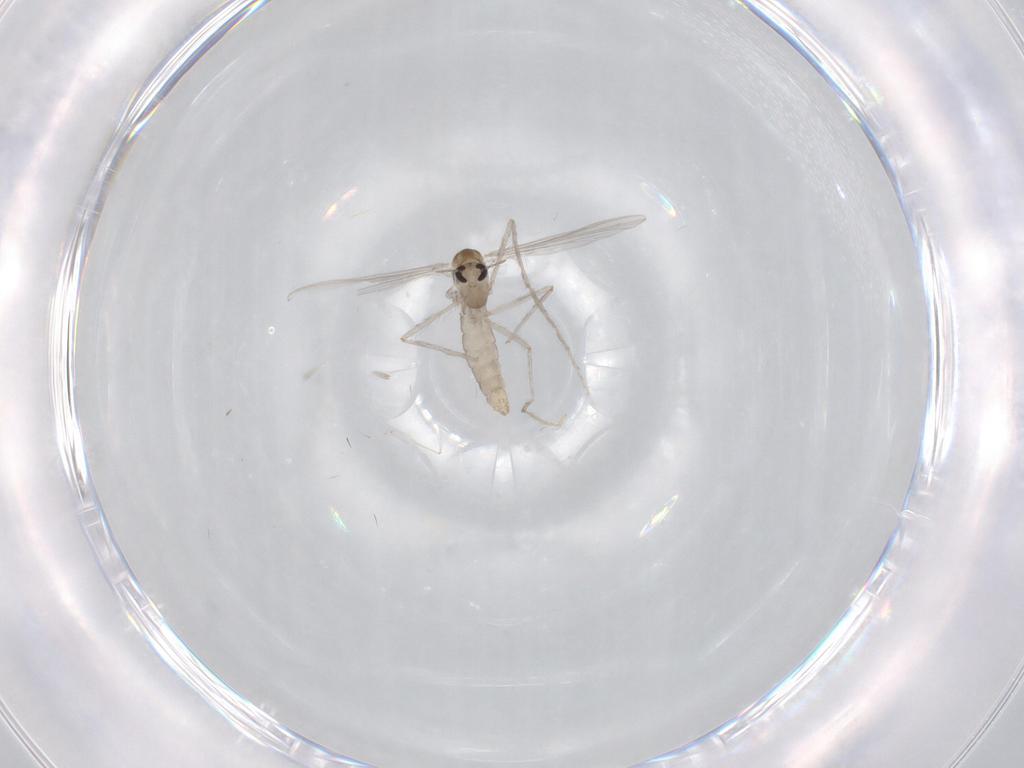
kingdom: Animalia
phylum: Arthropoda
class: Insecta
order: Diptera
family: Chironomidae
